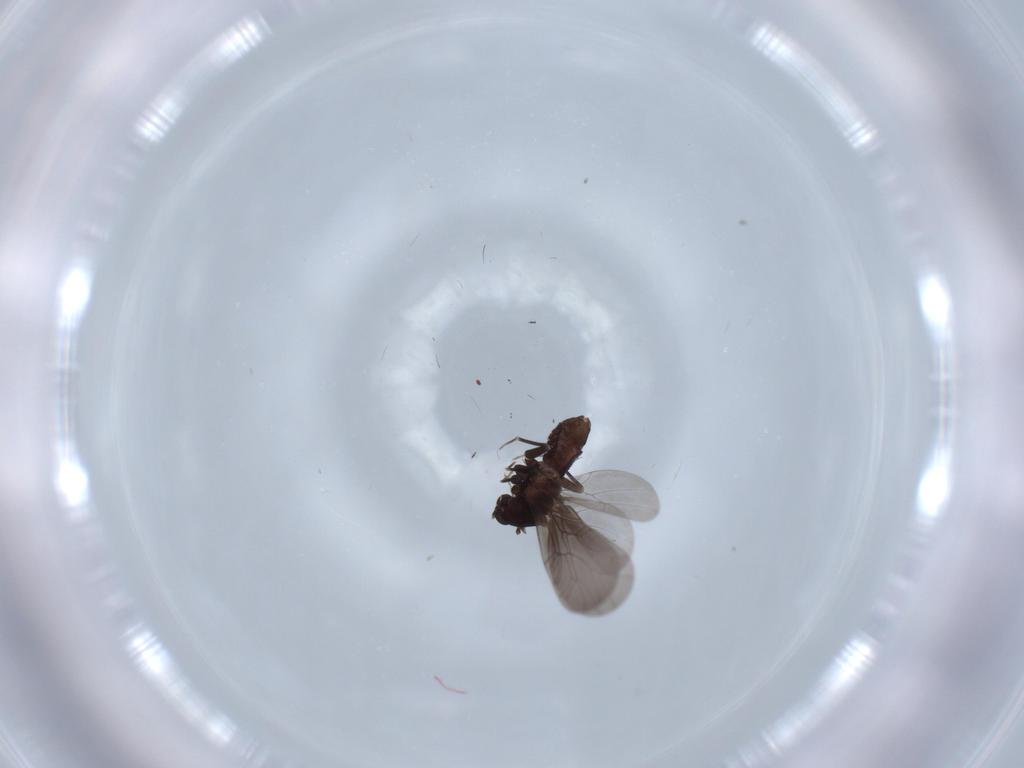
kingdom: Animalia
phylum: Arthropoda
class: Insecta
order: Psocodea
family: Lepidopsocidae
